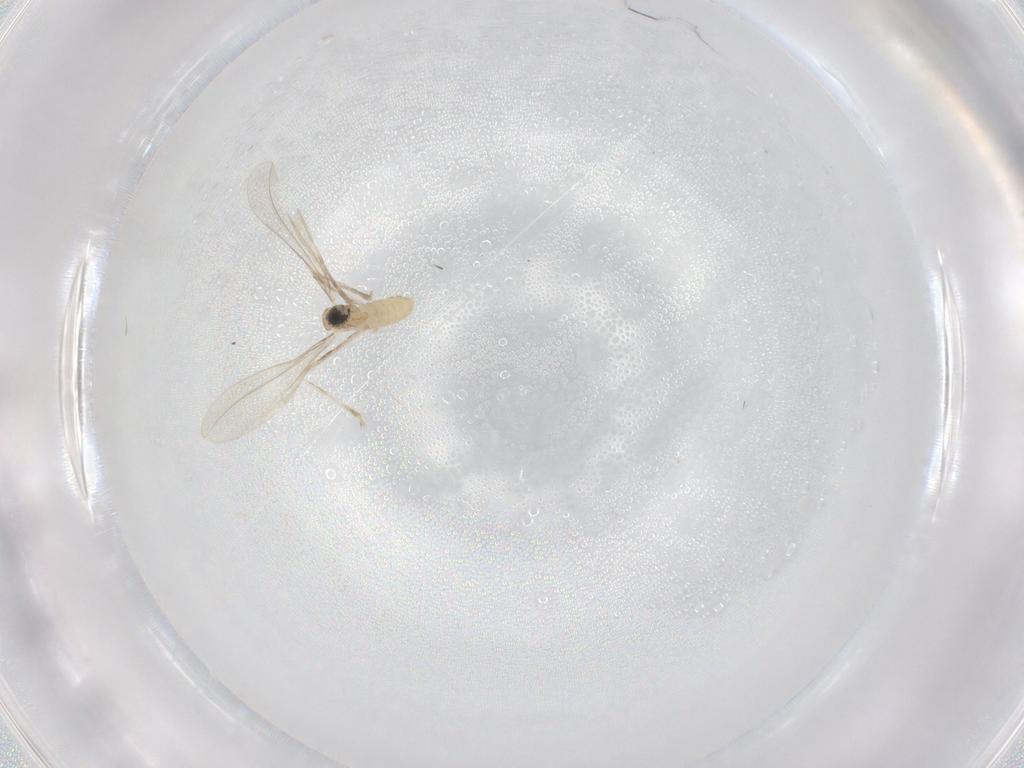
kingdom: Animalia
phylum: Arthropoda
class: Insecta
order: Diptera
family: Cecidomyiidae
